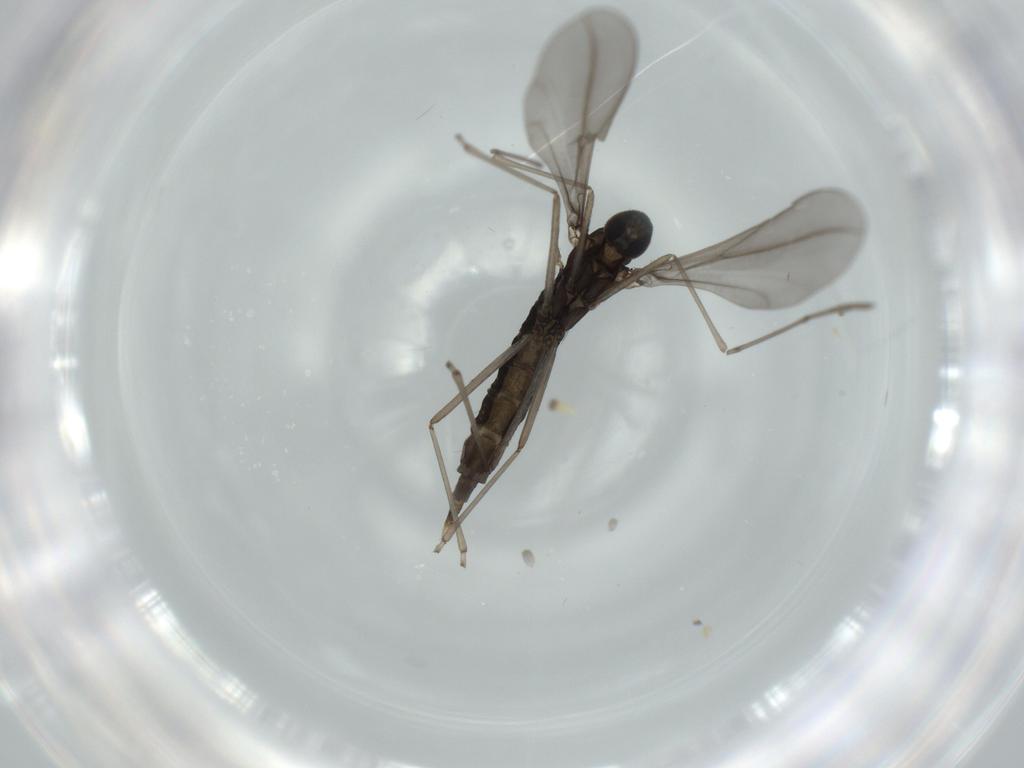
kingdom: Animalia
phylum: Arthropoda
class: Insecta
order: Diptera
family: Cecidomyiidae
